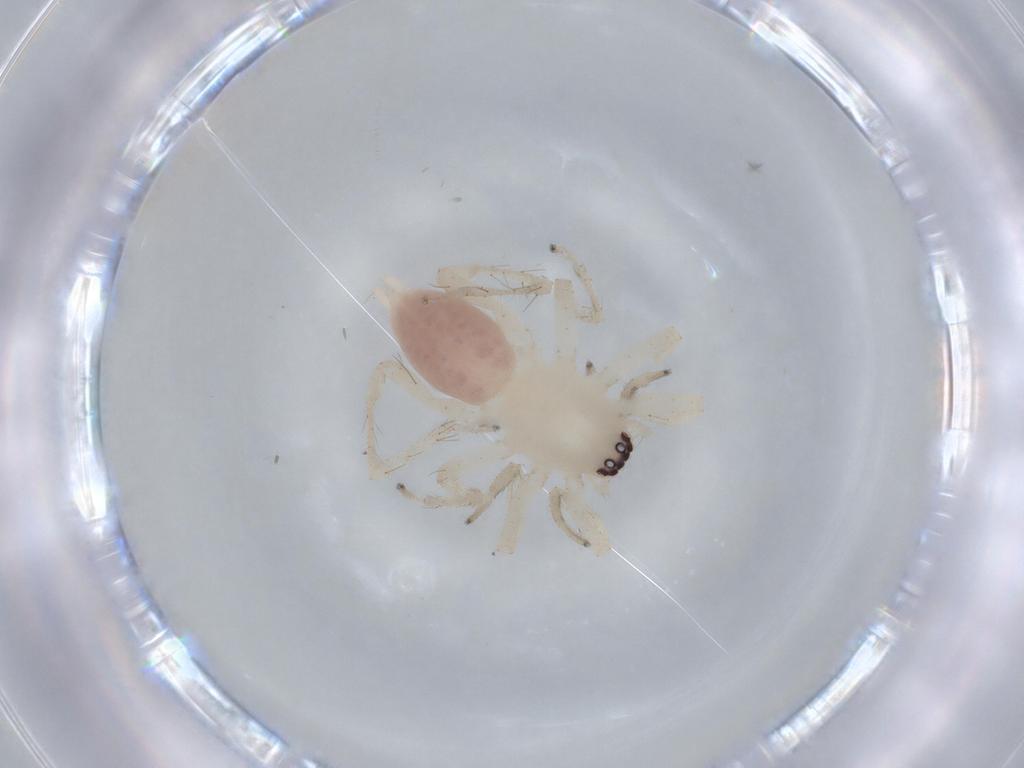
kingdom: Animalia
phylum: Arthropoda
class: Arachnida
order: Araneae
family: Clubionidae
